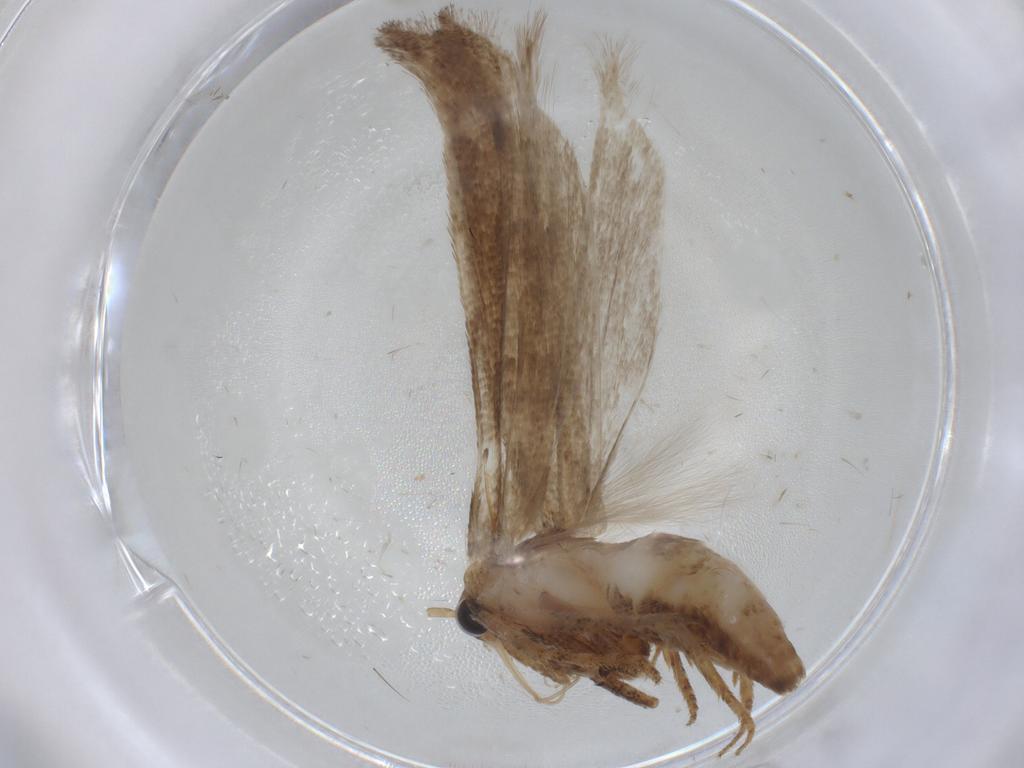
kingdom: Animalia
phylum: Arthropoda
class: Insecta
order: Lepidoptera
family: Gelechiidae
